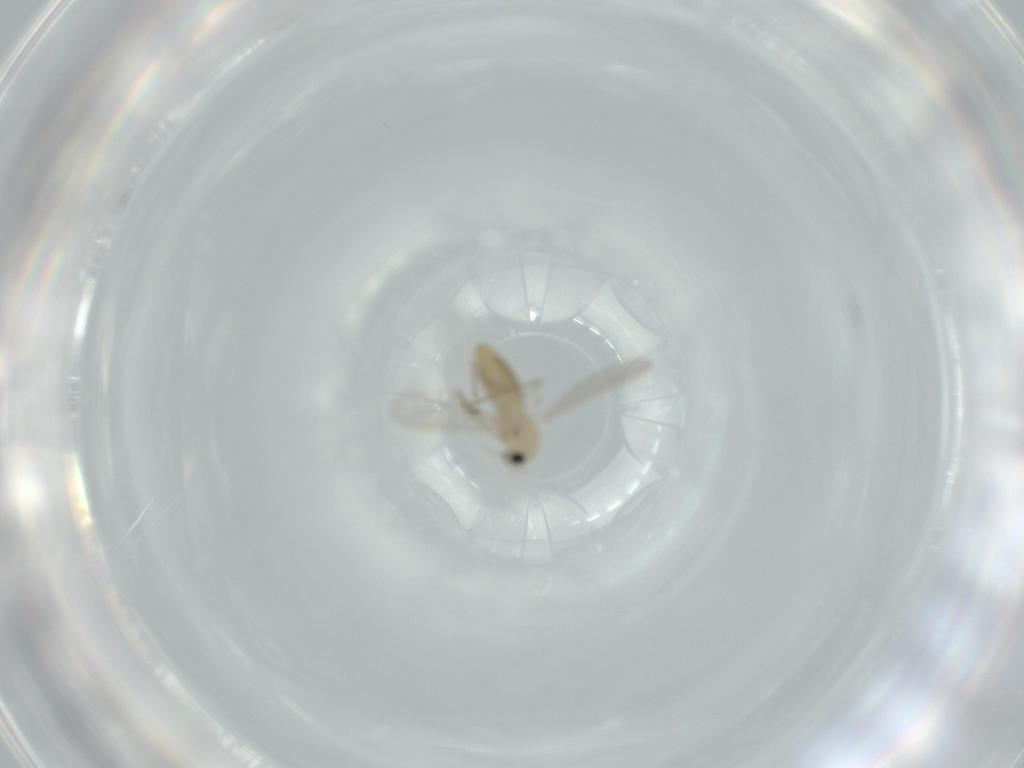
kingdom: Animalia
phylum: Arthropoda
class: Insecta
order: Diptera
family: Chironomidae
